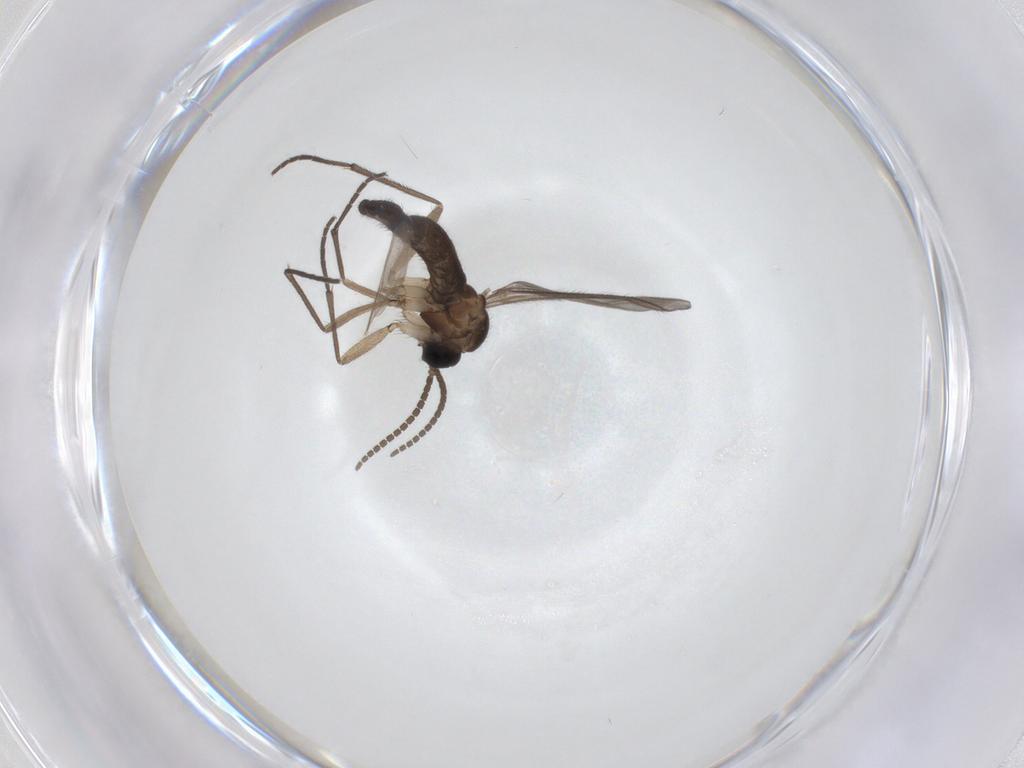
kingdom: Animalia
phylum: Arthropoda
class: Insecta
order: Diptera
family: Sciaridae
